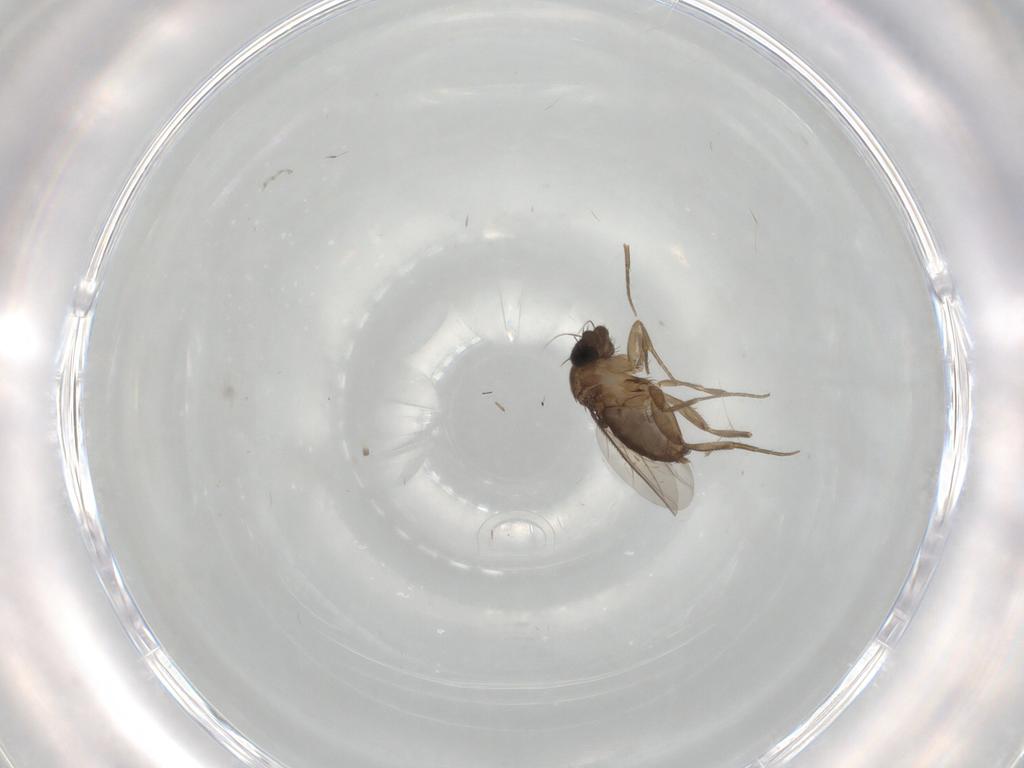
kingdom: Animalia
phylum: Arthropoda
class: Insecta
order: Diptera
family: Phoridae
